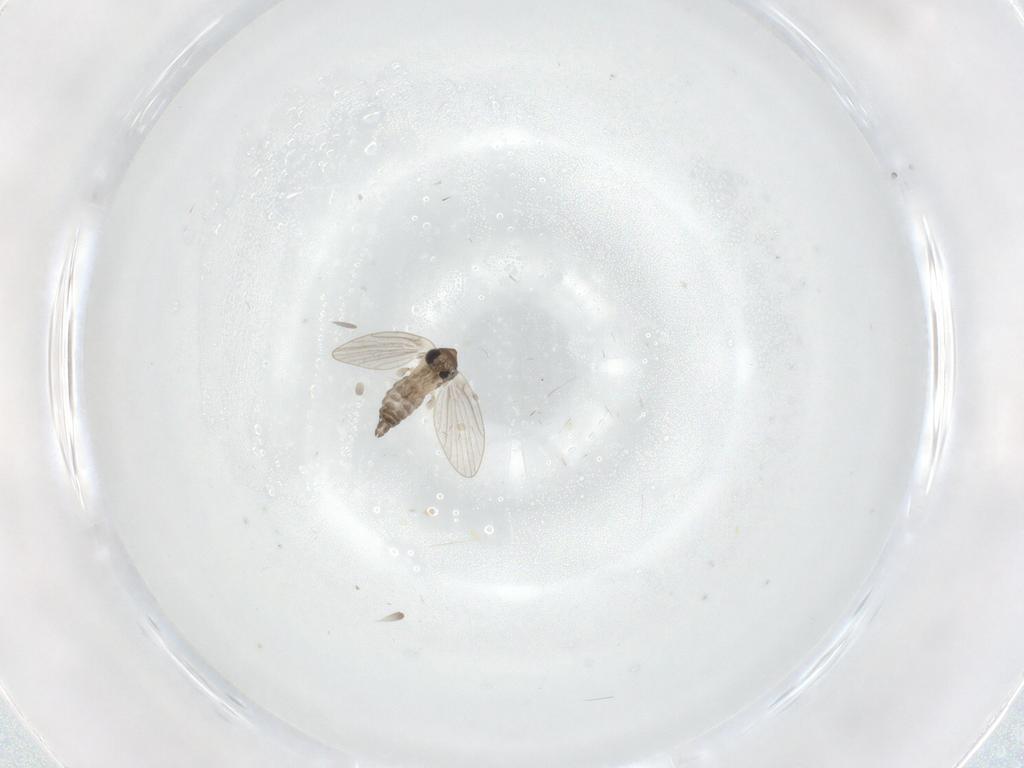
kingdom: Animalia
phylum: Arthropoda
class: Insecta
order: Diptera
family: Psychodidae
